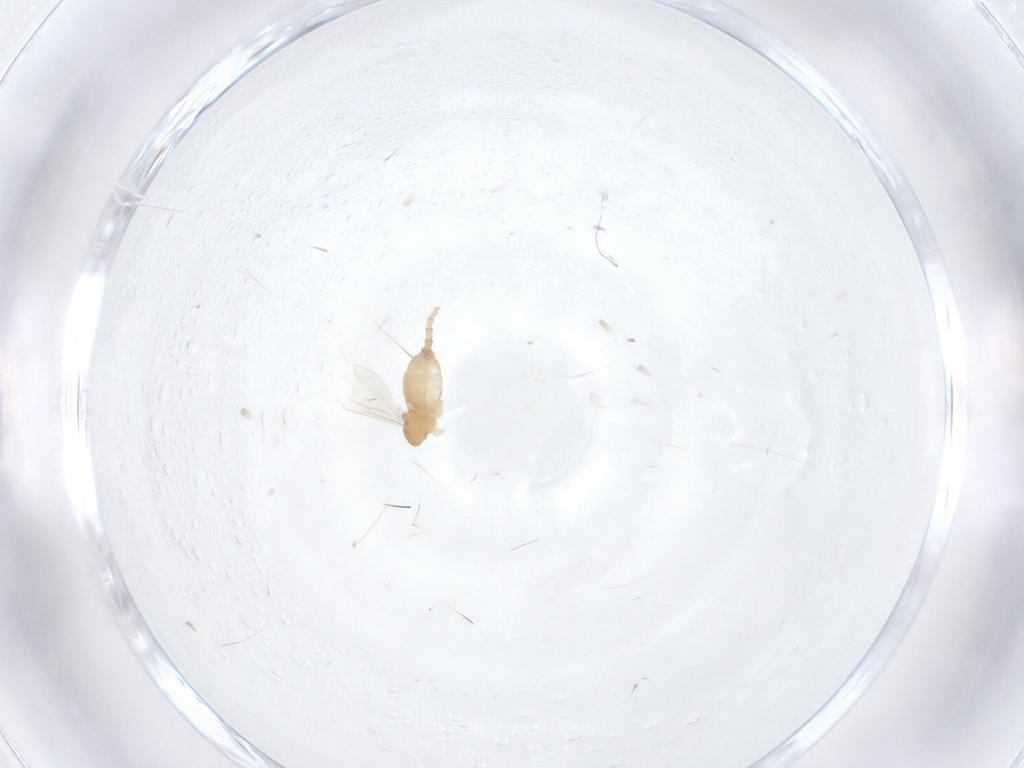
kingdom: Animalia
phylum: Arthropoda
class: Insecta
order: Diptera
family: Cecidomyiidae
